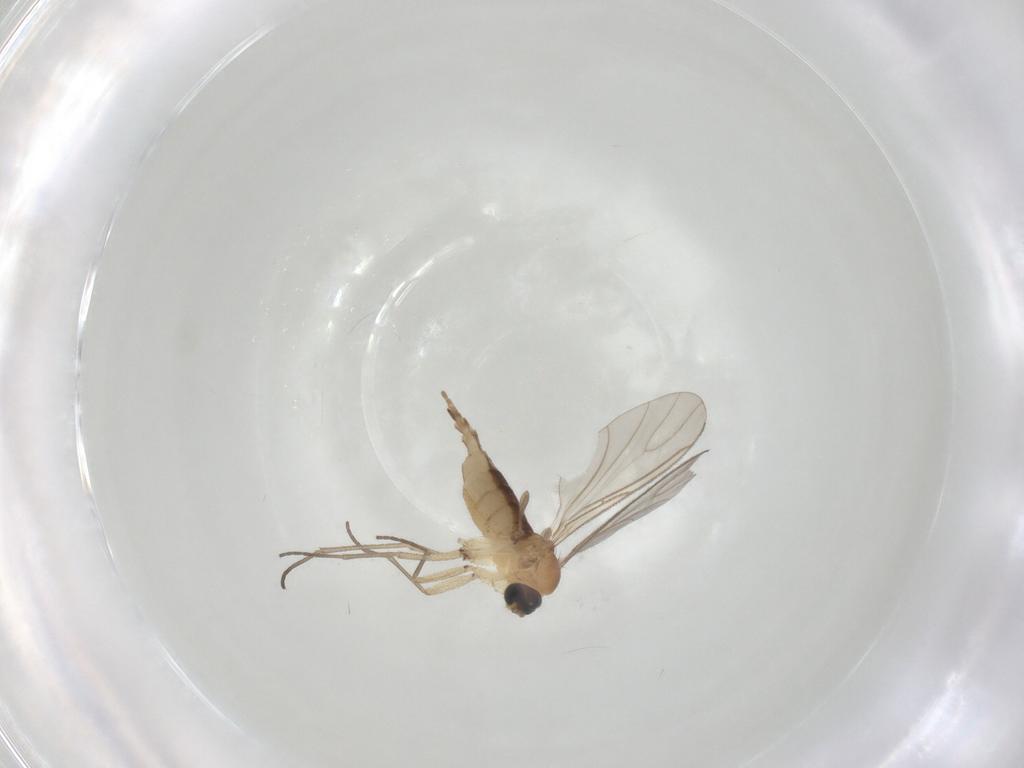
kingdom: Animalia
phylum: Arthropoda
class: Insecta
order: Diptera
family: Sciaridae
